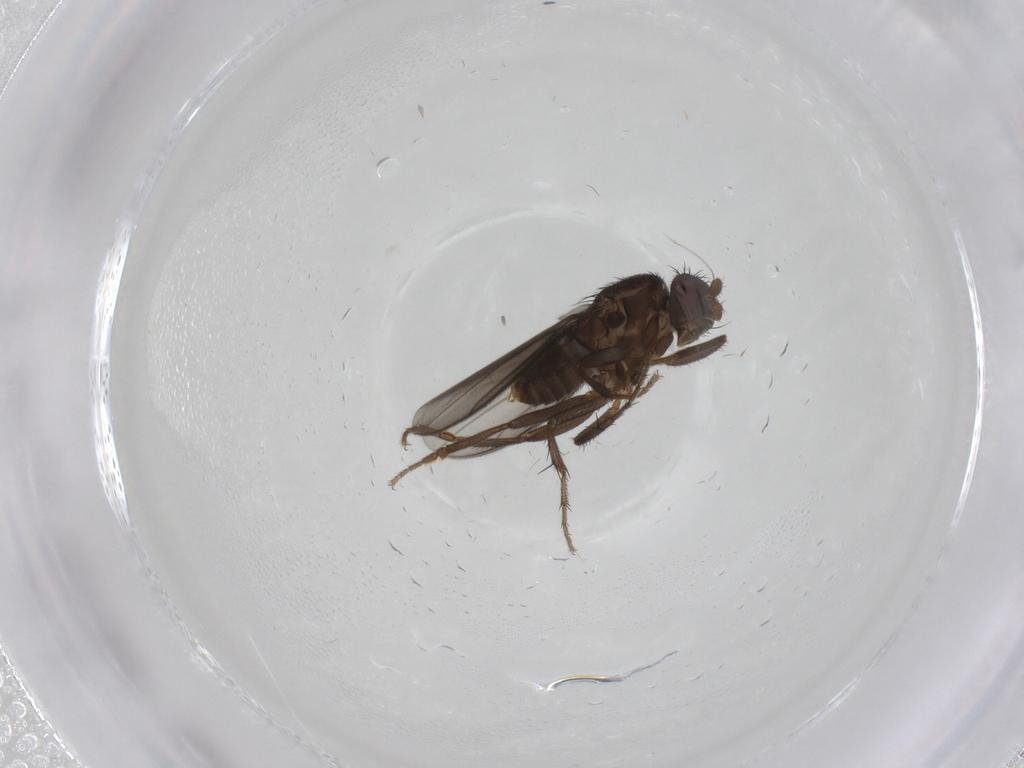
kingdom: Animalia
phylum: Arthropoda
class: Insecta
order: Diptera
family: Sphaeroceridae
